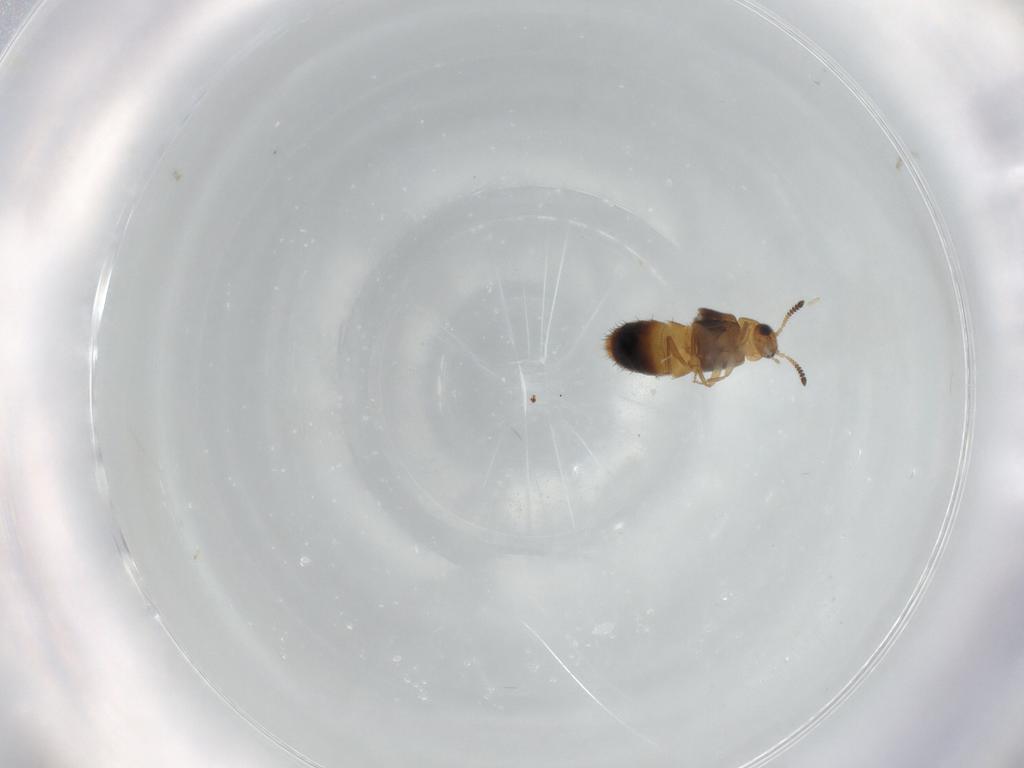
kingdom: Animalia
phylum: Arthropoda
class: Insecta
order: Coleoptera
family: Staphylinidae
